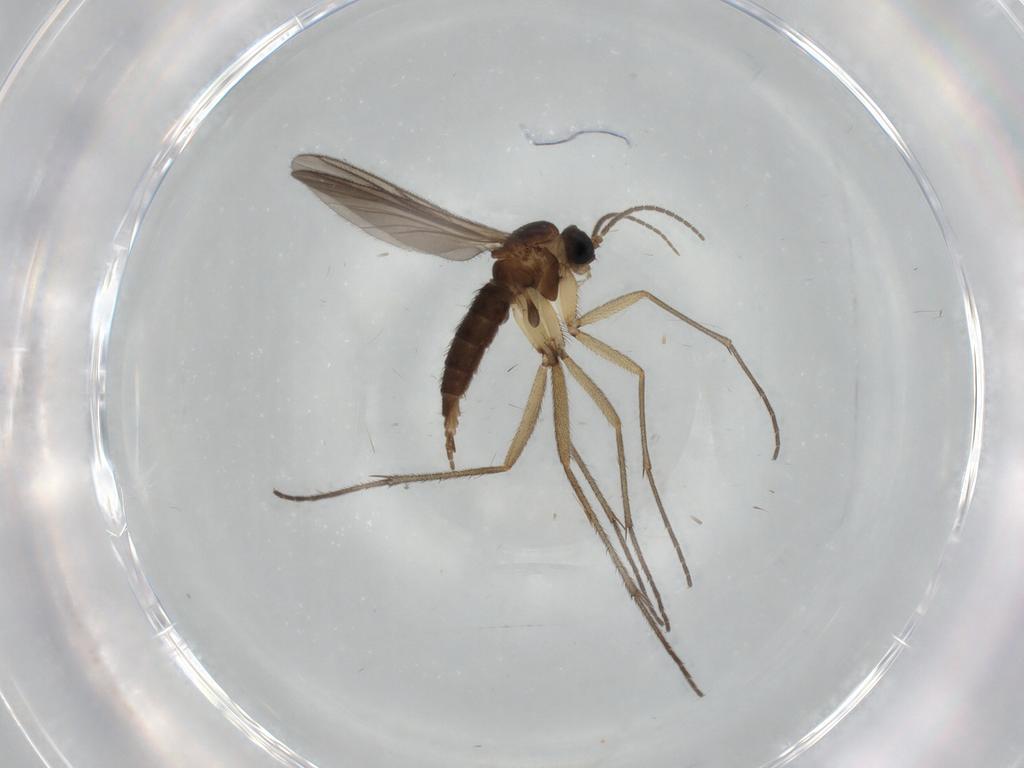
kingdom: Animalia
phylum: Arthropoda
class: Insecta
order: Diptera
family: Sciaridae
